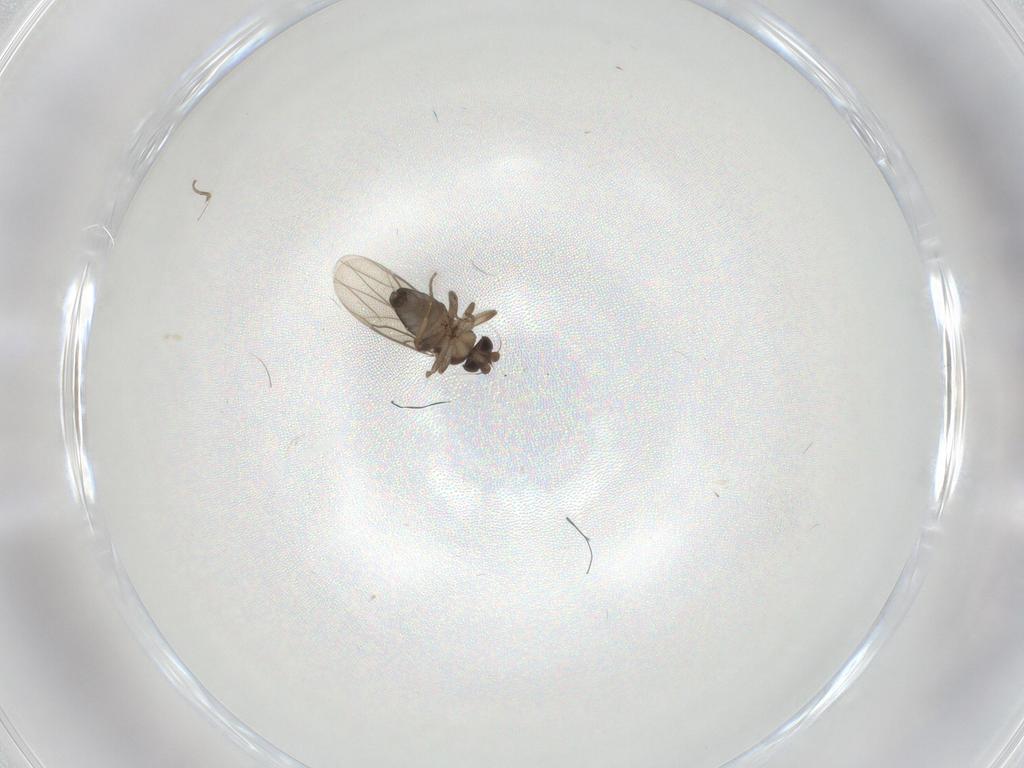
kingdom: Animalia
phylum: Arthropoda
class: Insecta
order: Diptera
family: Phoridae
